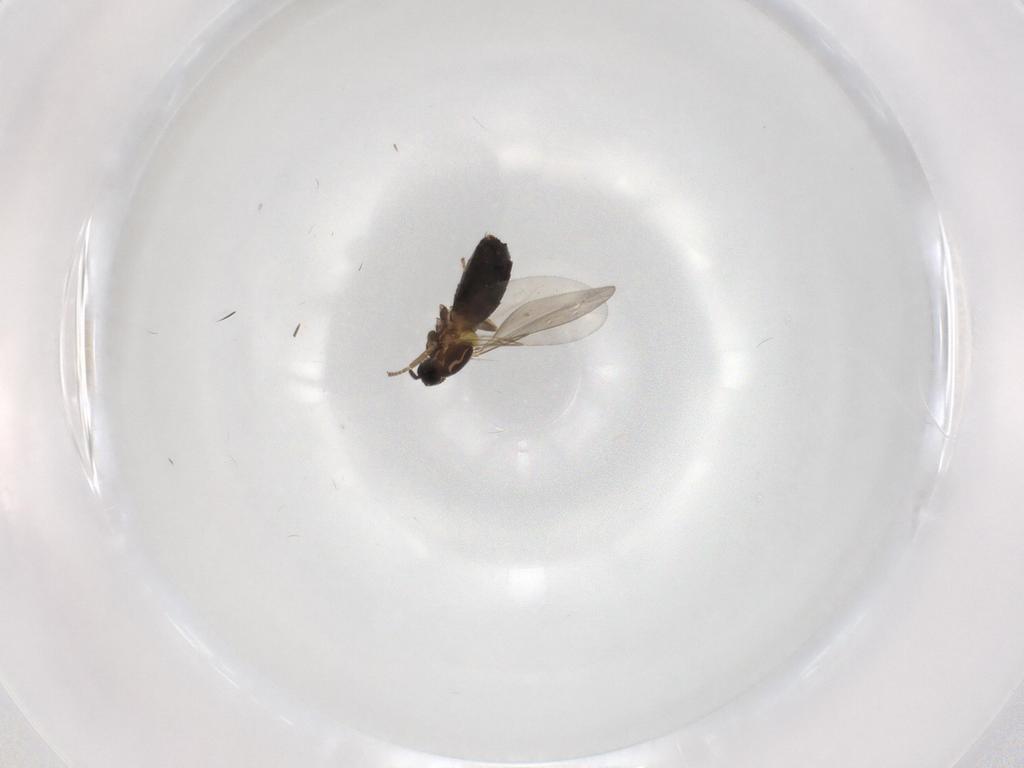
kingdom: Animalia
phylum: Arthropoda
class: Insecta
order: Diptera
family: Scatopsidae
